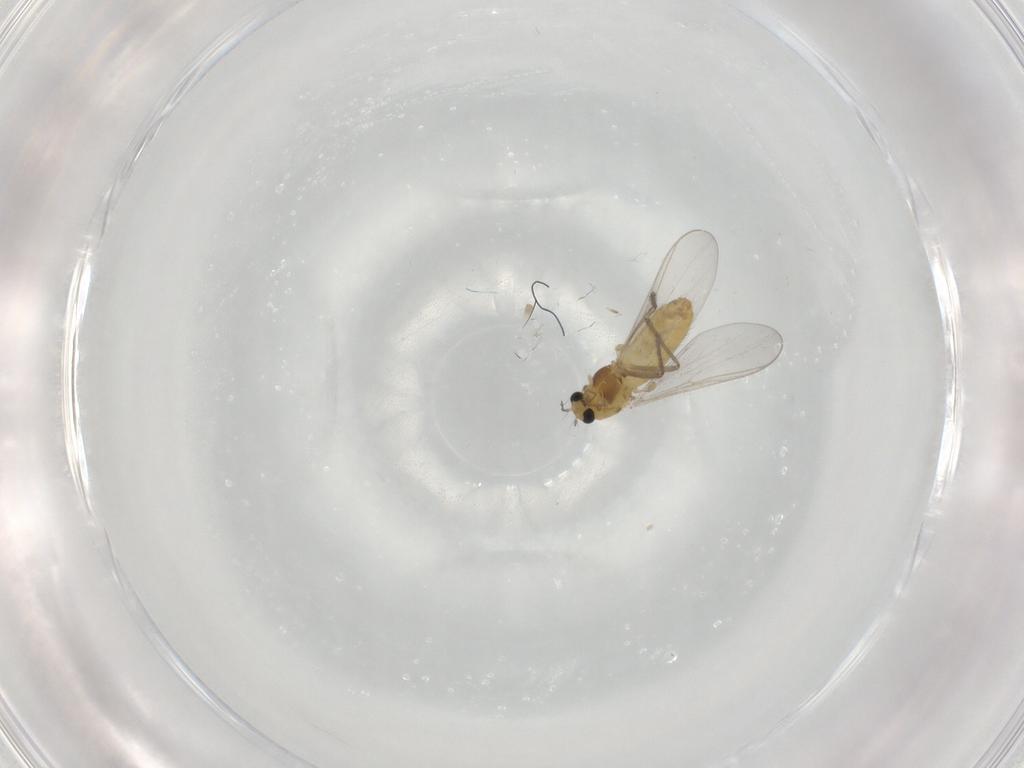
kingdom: Animalia
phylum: Arthropoda
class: Insecta
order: Diptera
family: Chironomidae
